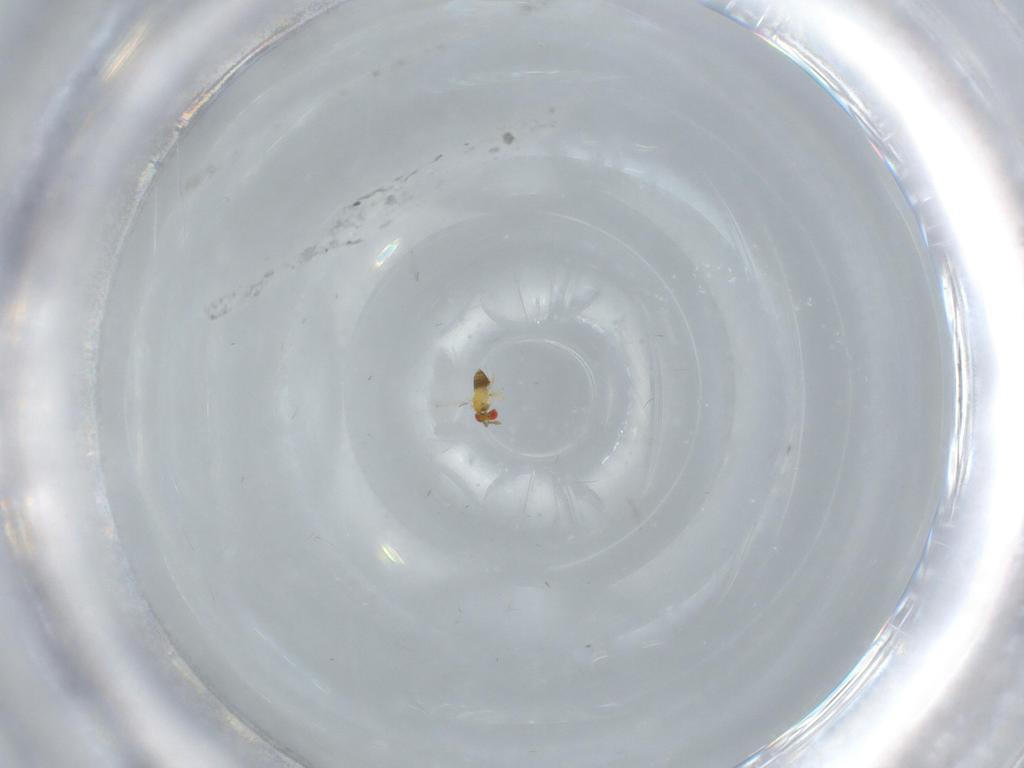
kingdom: Animalia
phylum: Arthropoda
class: Insecta
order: Hymenoptera
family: Trichogrammatidae
